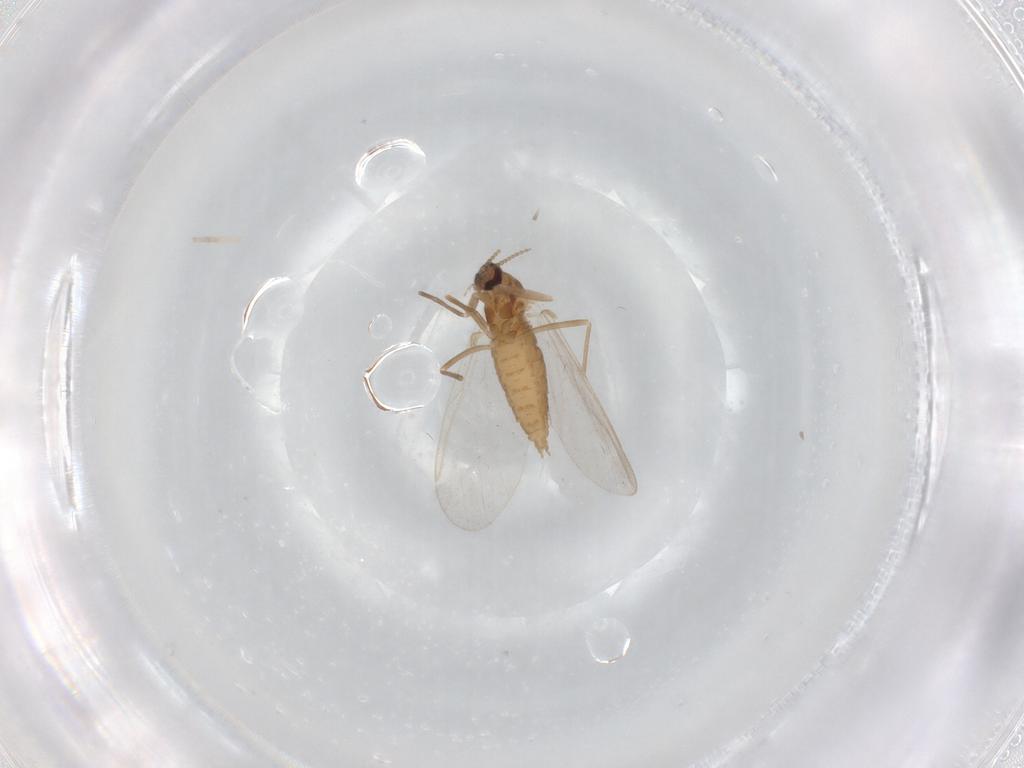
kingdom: Animalia
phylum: Arthropoda
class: Insecta
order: Diptera
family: Cecidomyiidae
